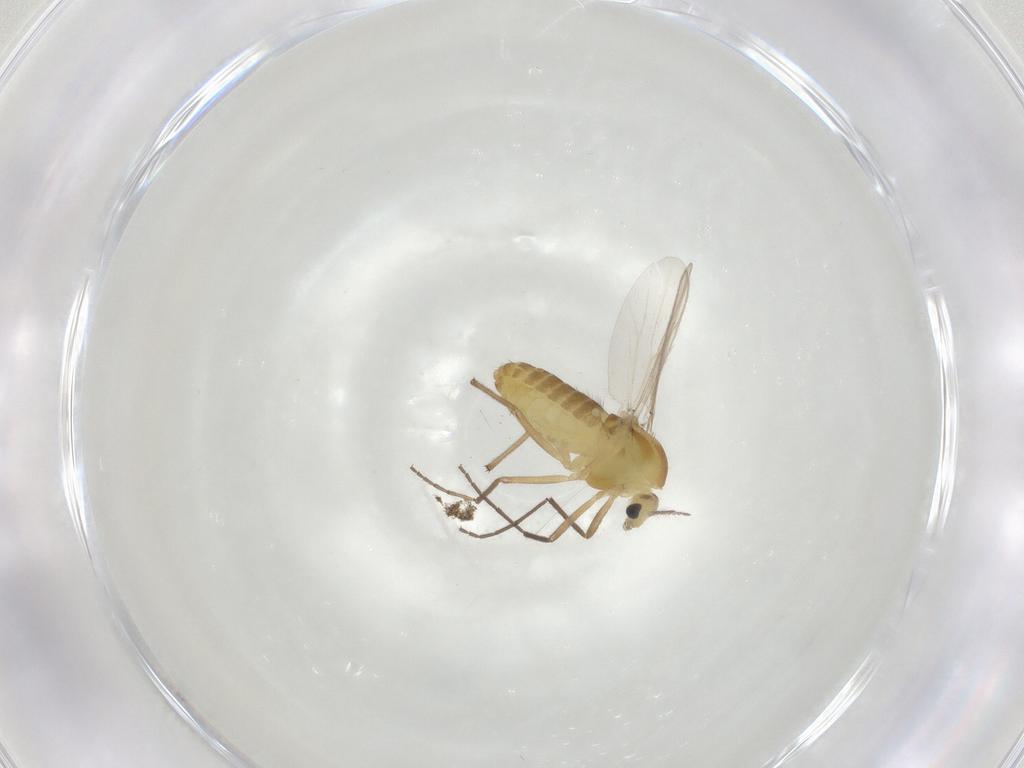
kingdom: Animalia
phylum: Arthropoda
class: Insecta
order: Diptera
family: Chironomidae
